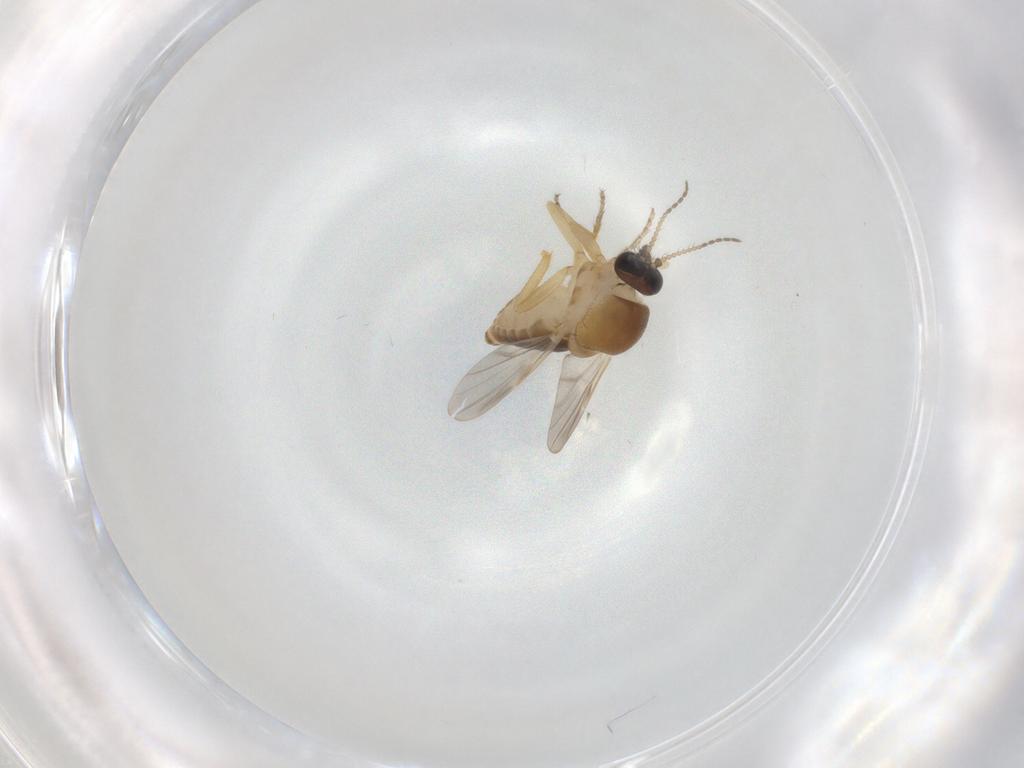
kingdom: Animalia
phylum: Arthropoda
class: Insecta
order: Diptera
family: Ceratopogonidae
